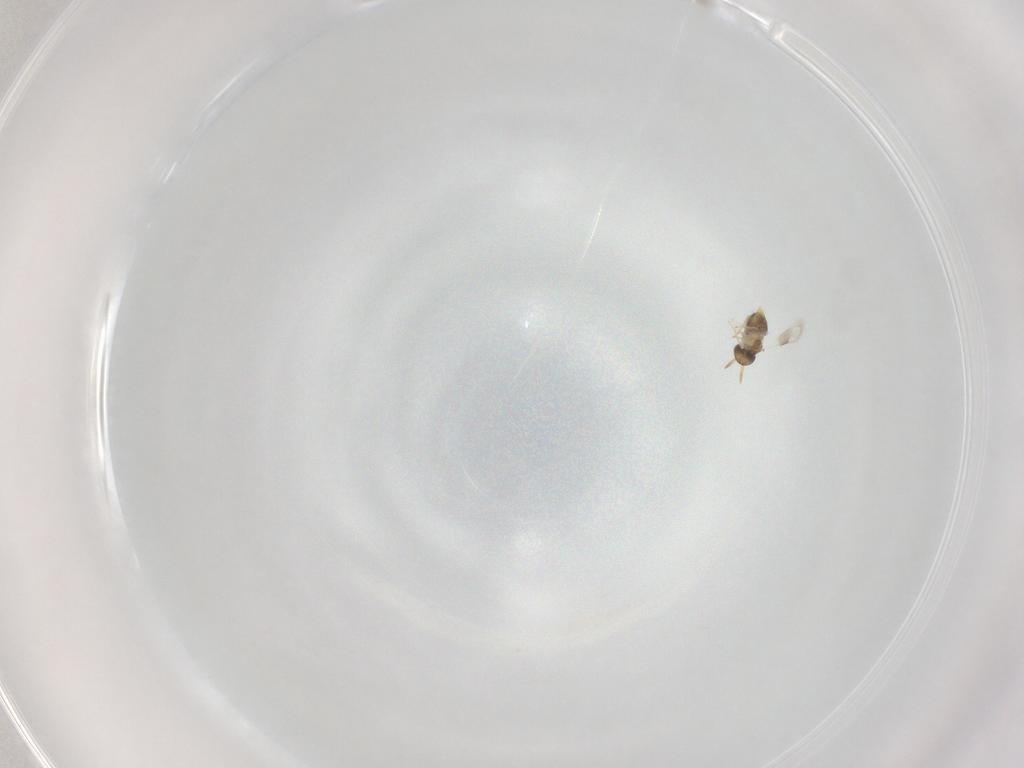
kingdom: Animalia
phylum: Arthropoda
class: Insecta
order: Hymenoptera
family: Aphelinidae
